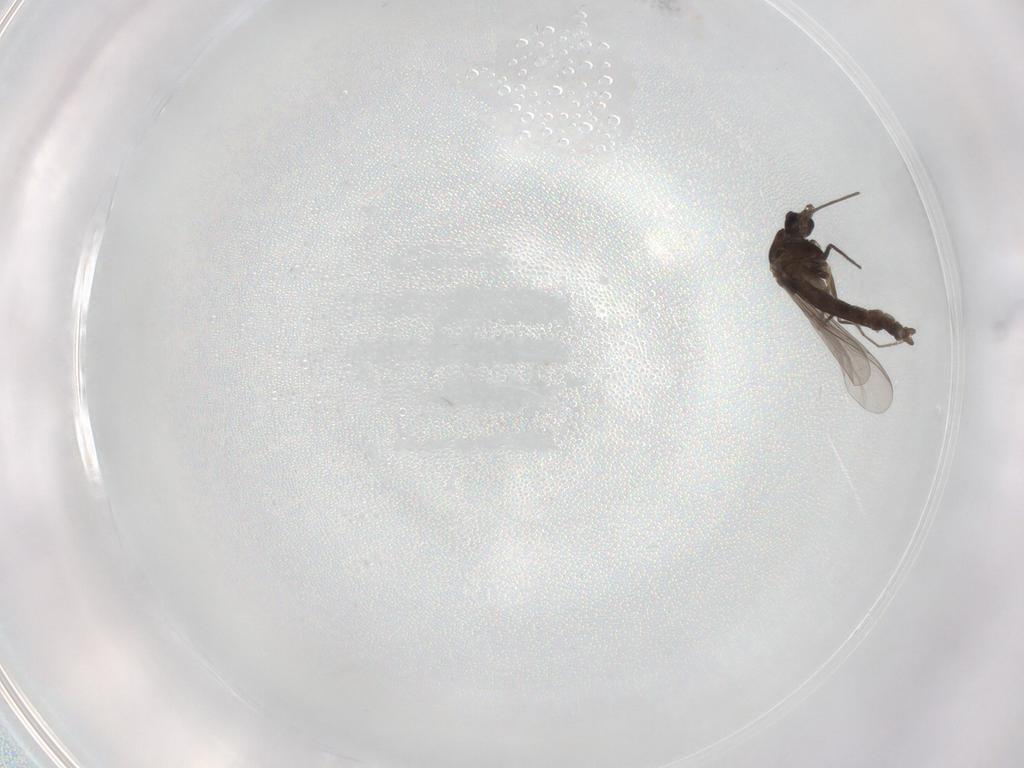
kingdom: Animalia
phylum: Arthropoda
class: Insecta
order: Diptera
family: Chironomidae
